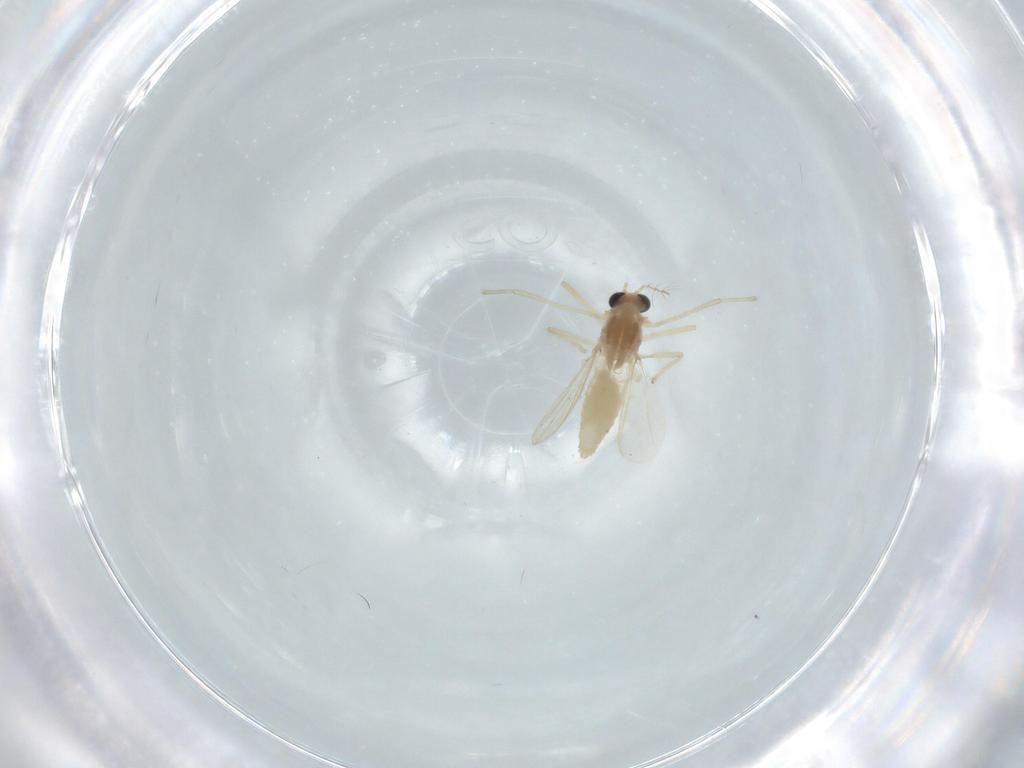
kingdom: Animalia
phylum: Arthropoda
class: Insecta
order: Diptera
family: Chironomidae
